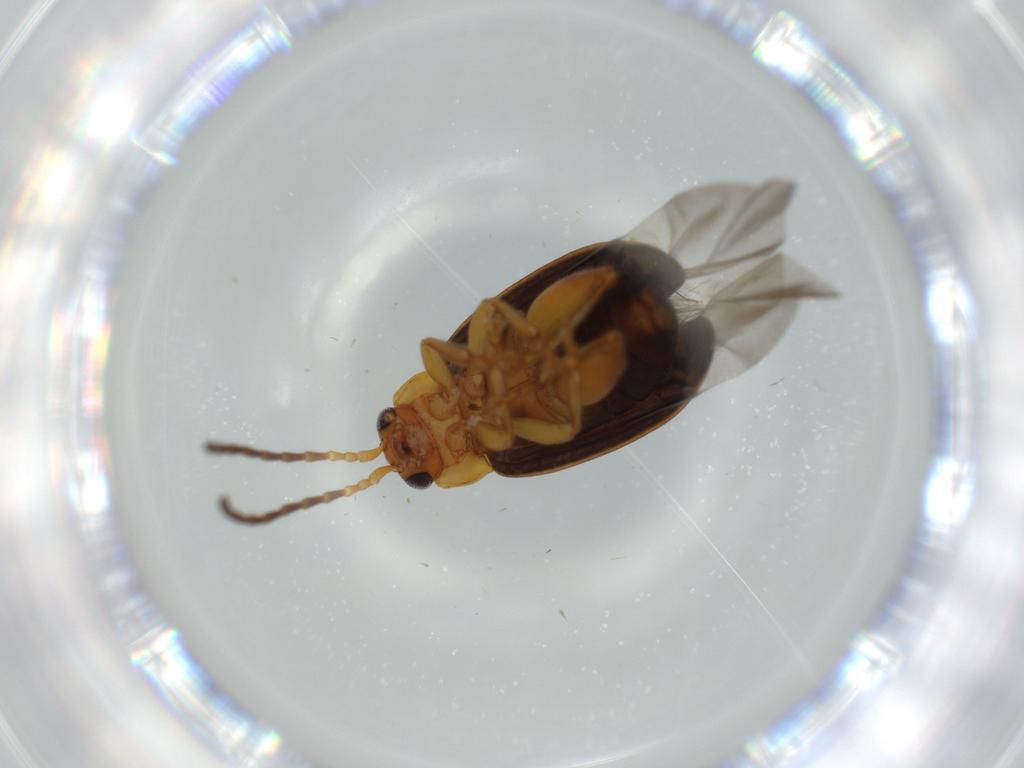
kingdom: Animalia
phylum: Arthropoda
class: Insecta
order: Coleoptera
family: Chrysomelidae
